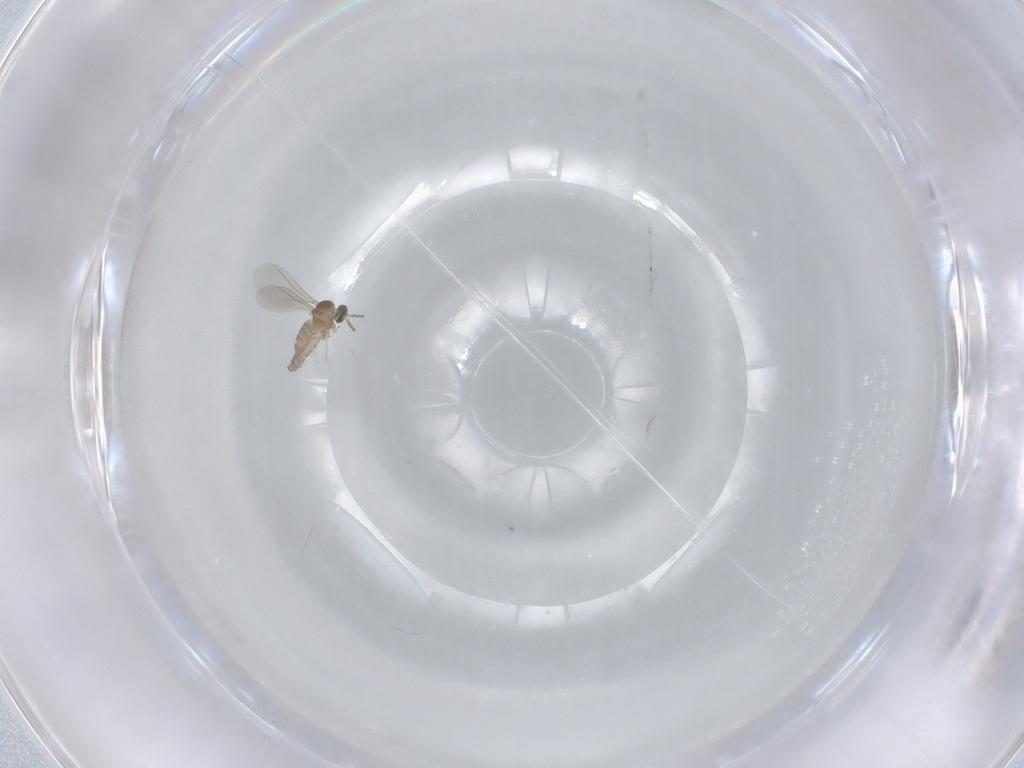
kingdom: Animalia
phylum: Arthropoda
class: Insecta
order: Diptera
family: Cecidomyiidae
